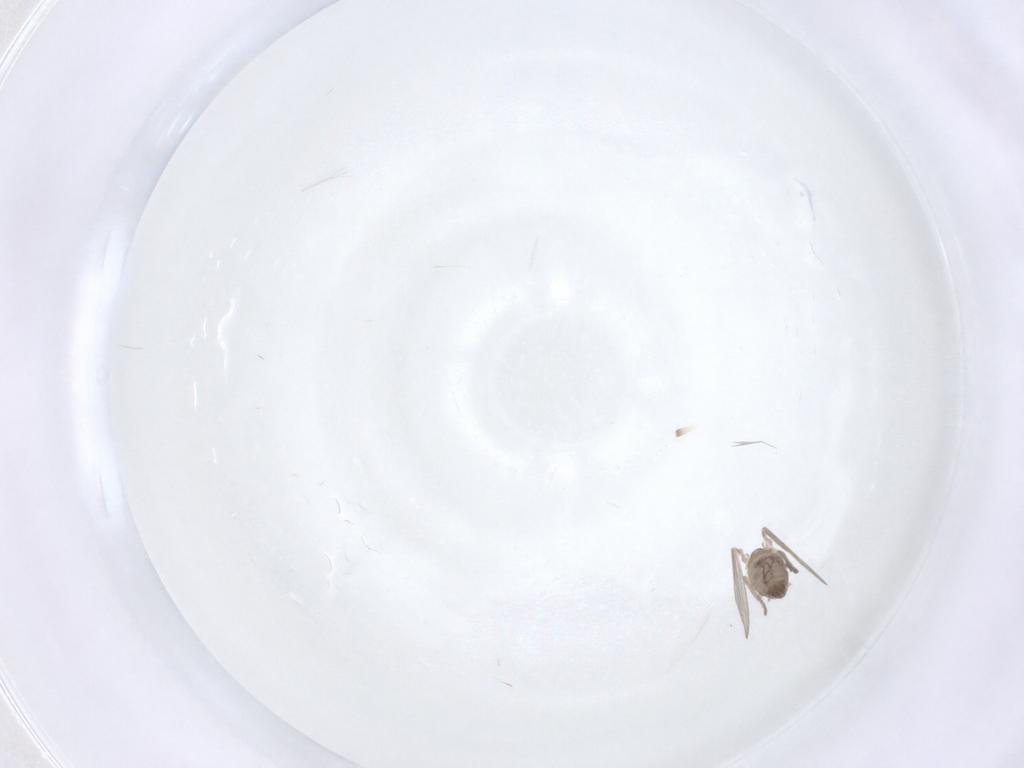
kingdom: Animalia
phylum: Arthropoda
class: Insecta
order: Diptera
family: Psychodidae
